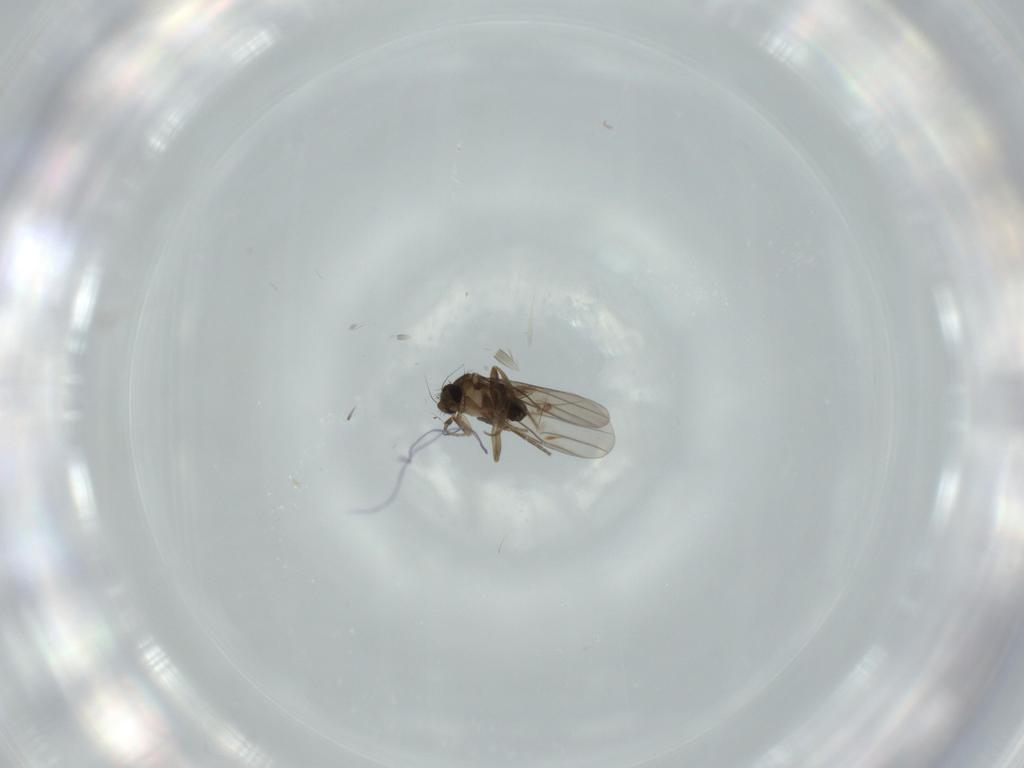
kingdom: Animalia
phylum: Arthropoda
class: Insecta
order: Diptera
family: Phoridae
